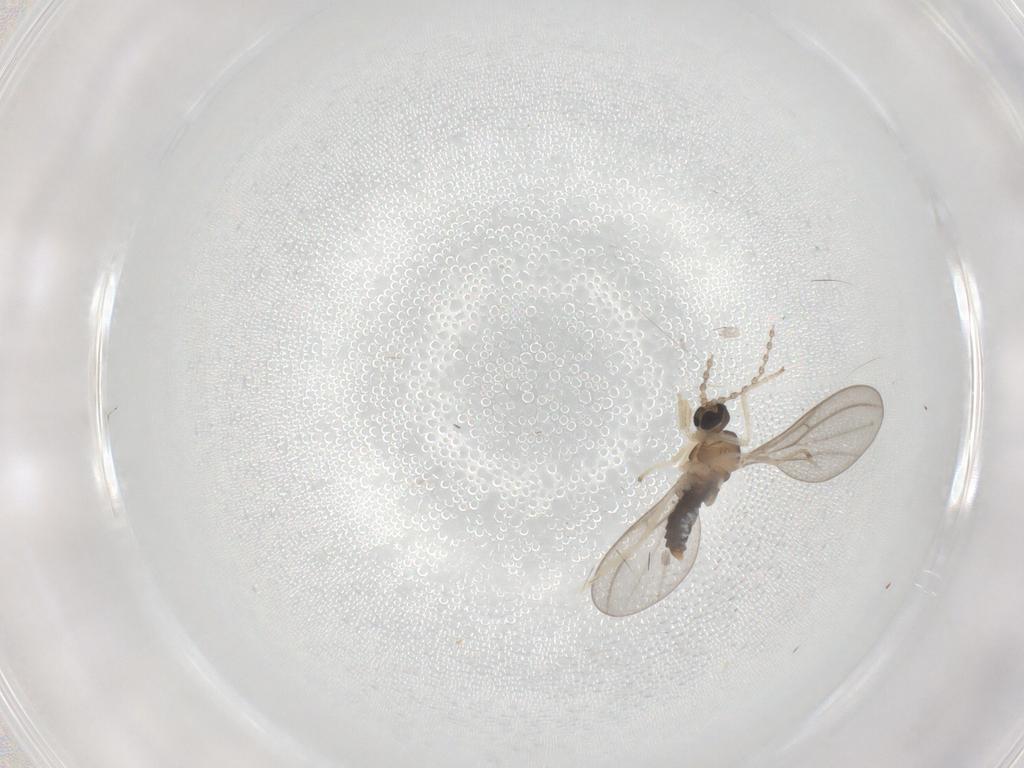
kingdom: Animalia
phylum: Arthropoda
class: Insecta
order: Diptera
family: Cecidomyiidae
